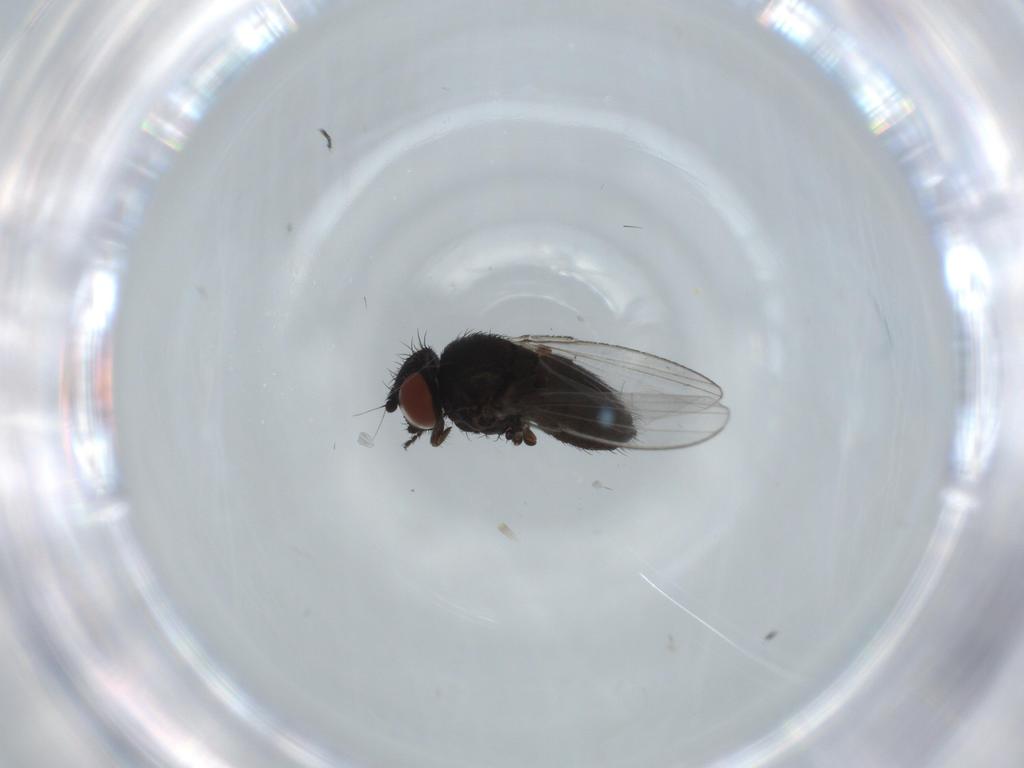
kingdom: Animalia
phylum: Arthropoda
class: Insecta
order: Diptera
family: Milichiidae
